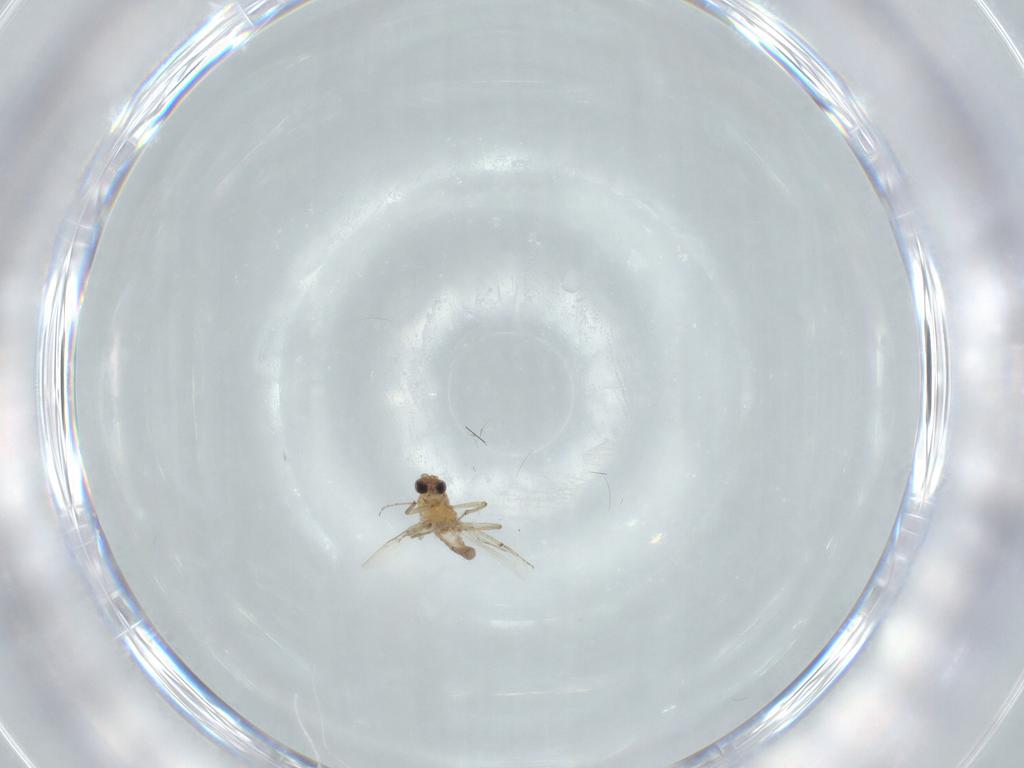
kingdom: Animalia
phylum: Arthropoda
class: Insecta
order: Diptera
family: Ceratopogonidae
